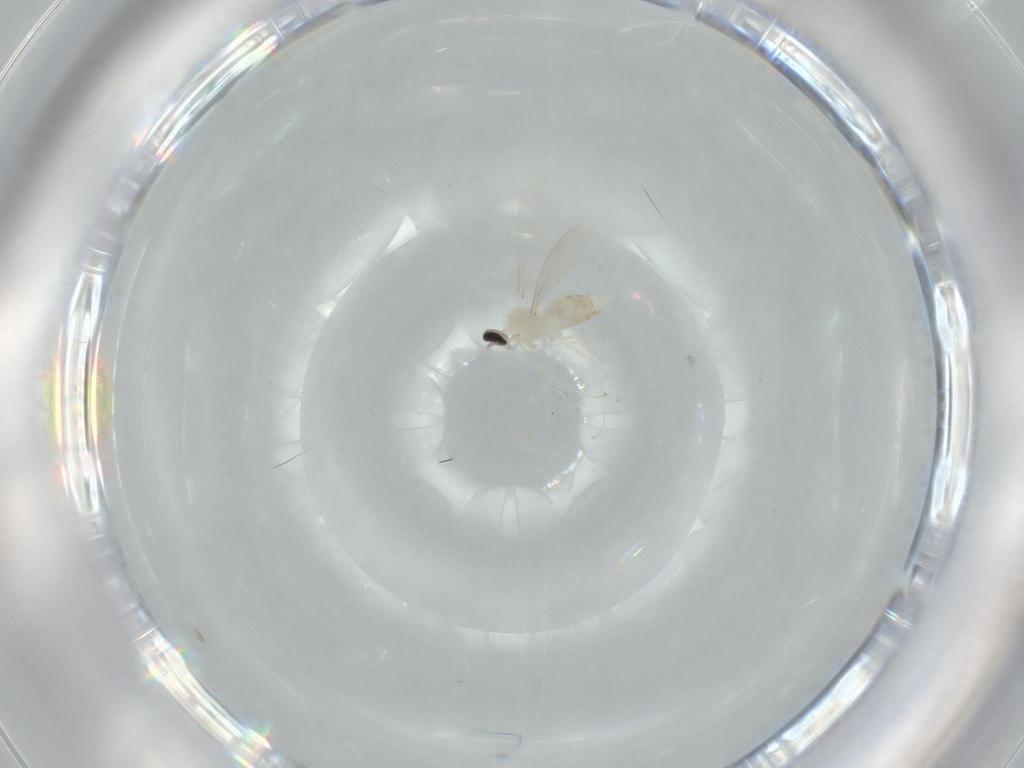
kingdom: Animalia
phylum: Arthropoda
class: Insecta
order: Diptera
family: Cecidomyiidae
